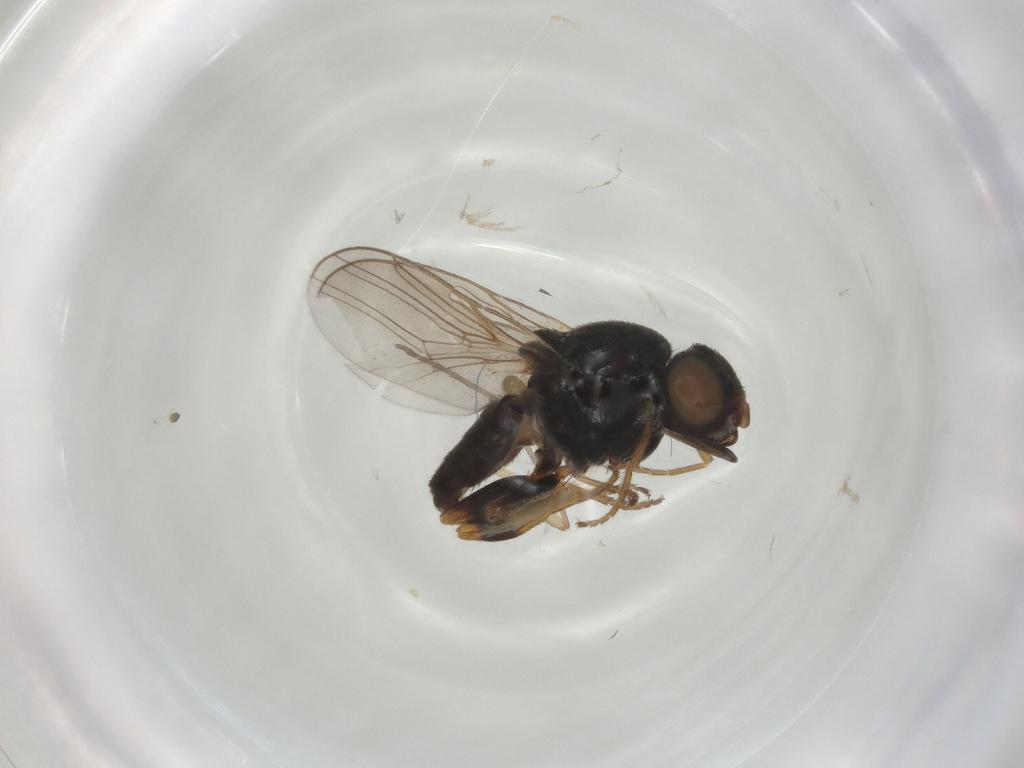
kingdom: Animalia
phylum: Arthropoda
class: Insecta
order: Diptera
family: Chloropidae
